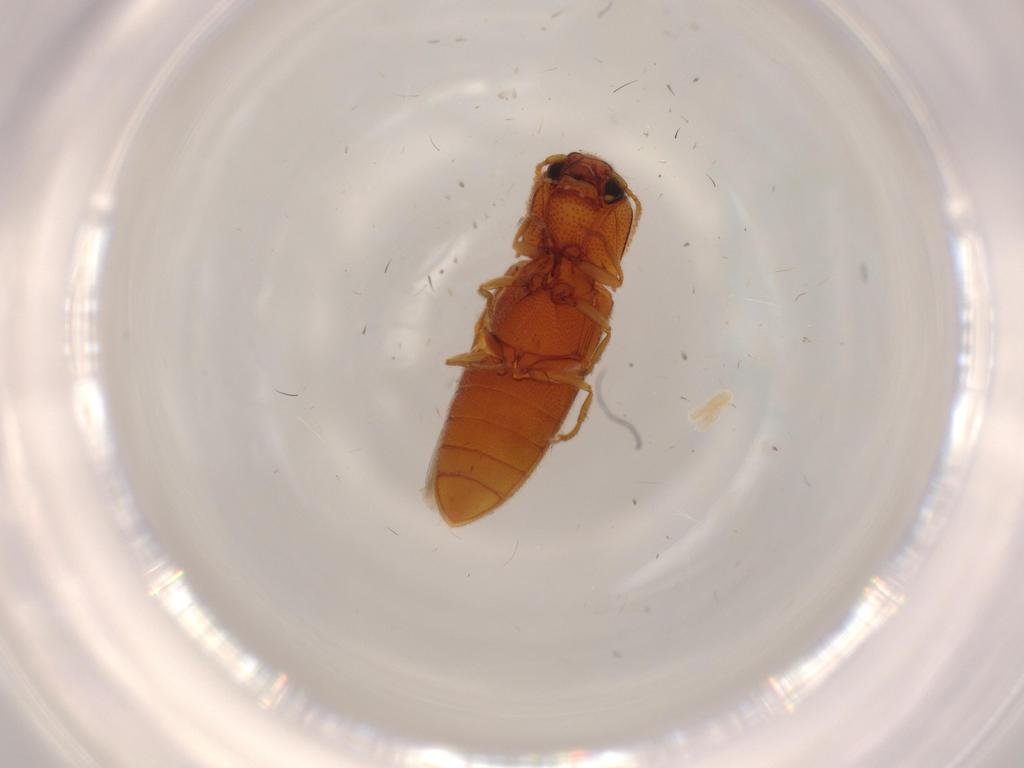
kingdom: Animalia
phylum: Arthropoda
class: Insecta
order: Coleoptera
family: Elateridae
